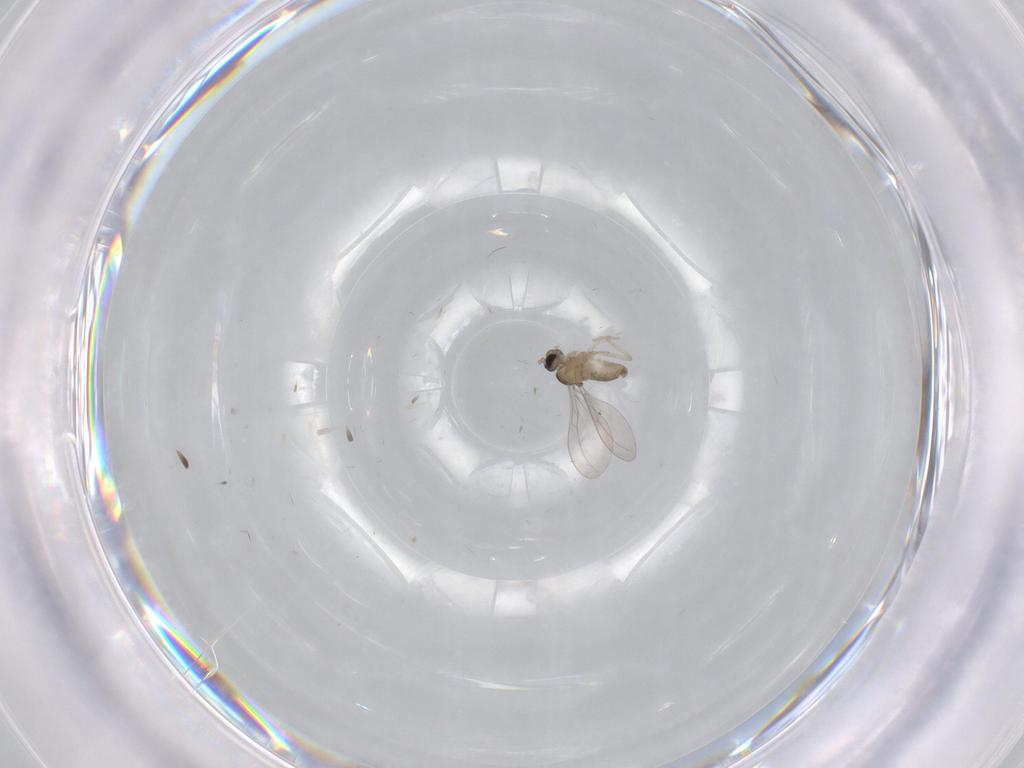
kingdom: Animalia
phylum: Arthropoda
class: Insecta
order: Diptera
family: Cecidomyiidae
